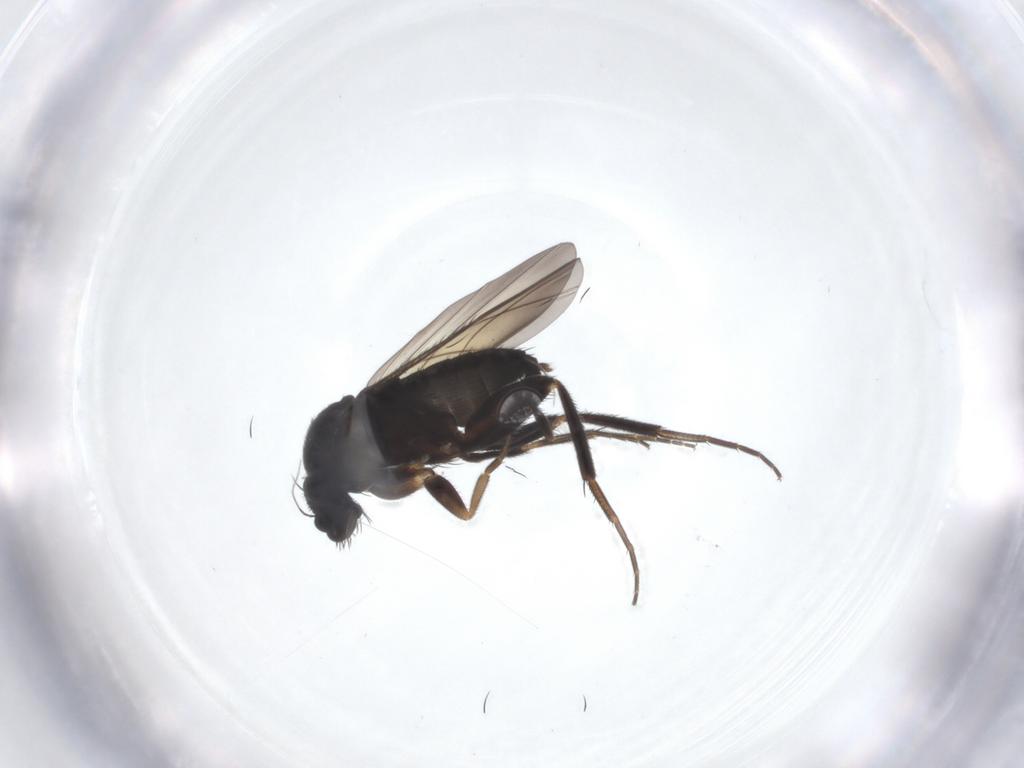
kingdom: Animalia
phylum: Arthropoda
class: Insecta
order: Diptera
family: Phoridae
